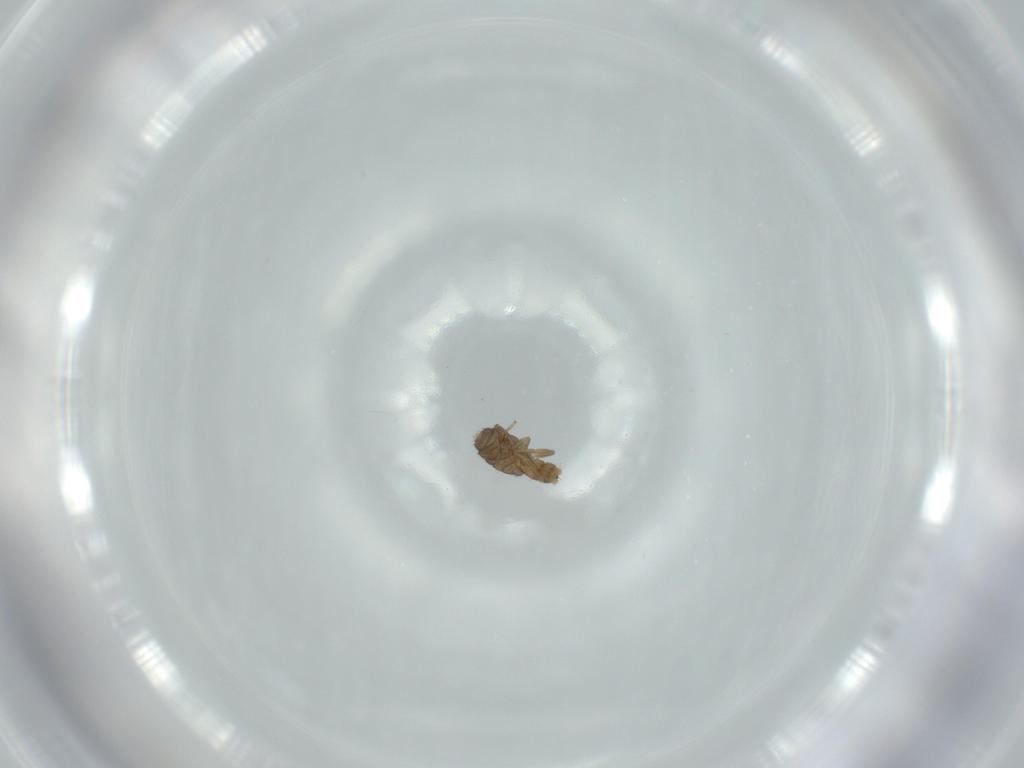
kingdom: Animalia
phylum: Arthropoda
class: Insecta
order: Diptera
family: Phoridae
